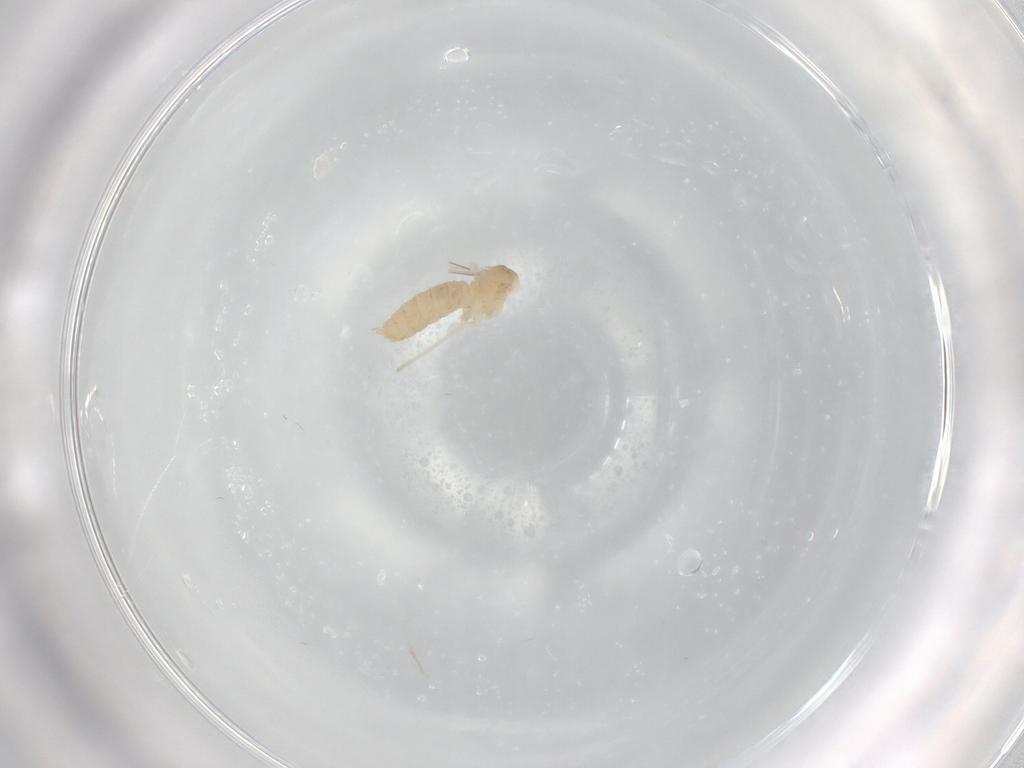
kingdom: Animalia
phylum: Arthropoda
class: Insecta
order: Diptera
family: Cecidomyiidae
